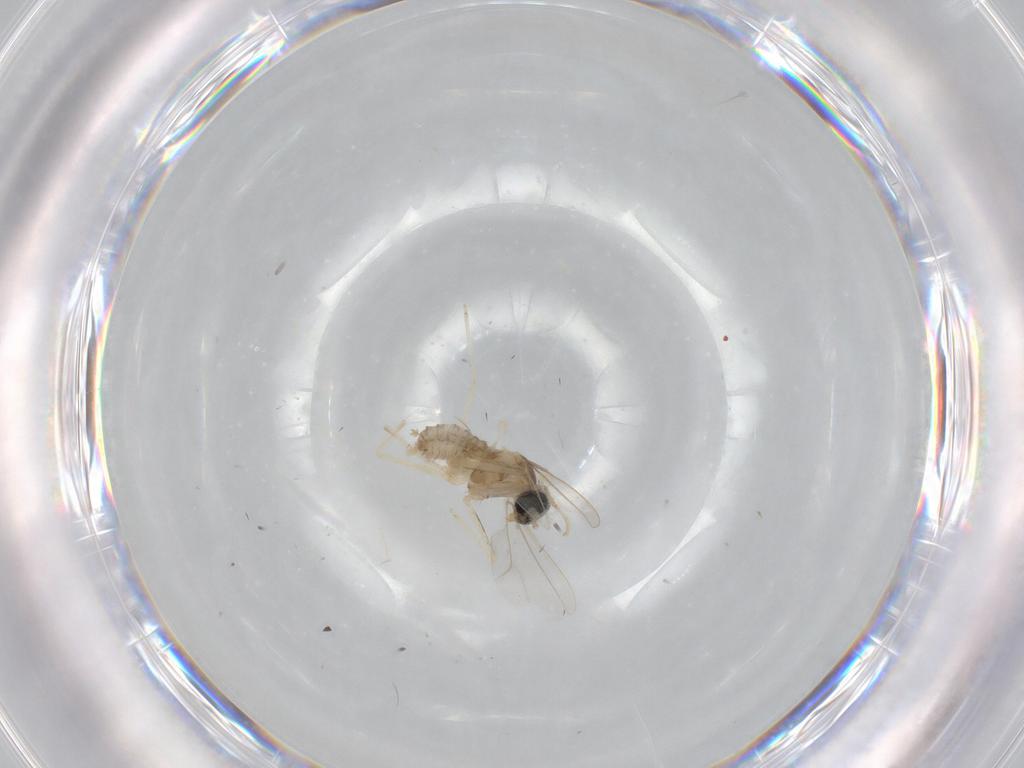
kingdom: Animalia
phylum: Arthropoda
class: Insecta
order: Diptera
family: Cecidomyiidae
